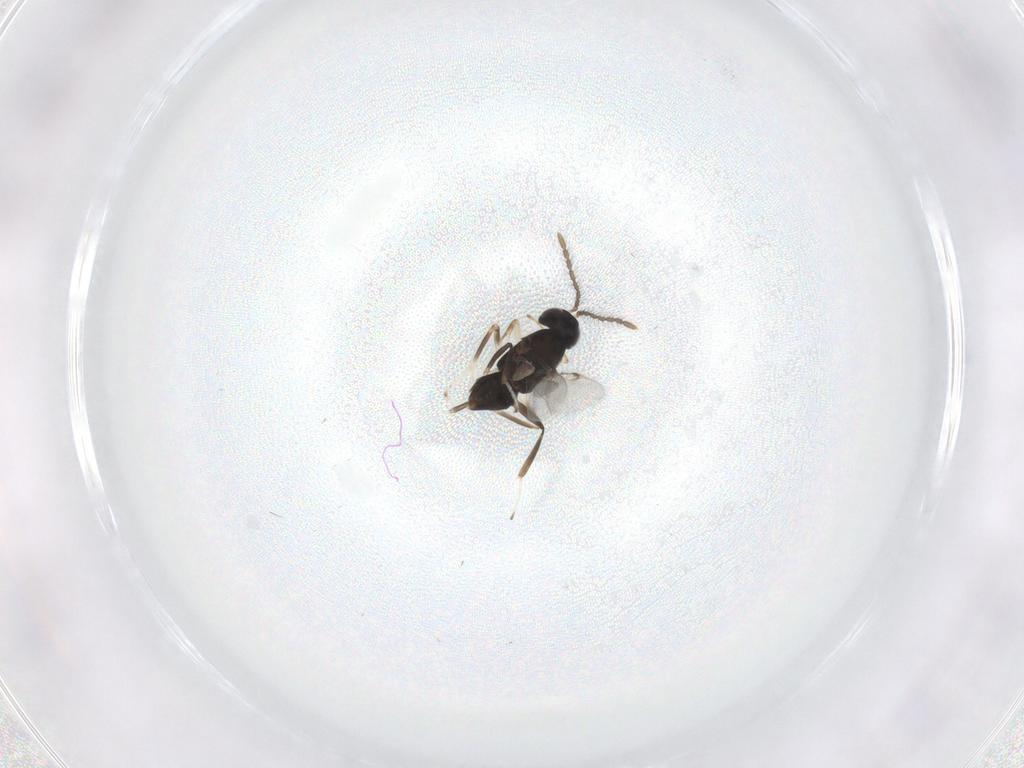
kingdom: Animalia
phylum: Arthropoda
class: Insecta
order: Hymenoptera
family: Encyrtidae
